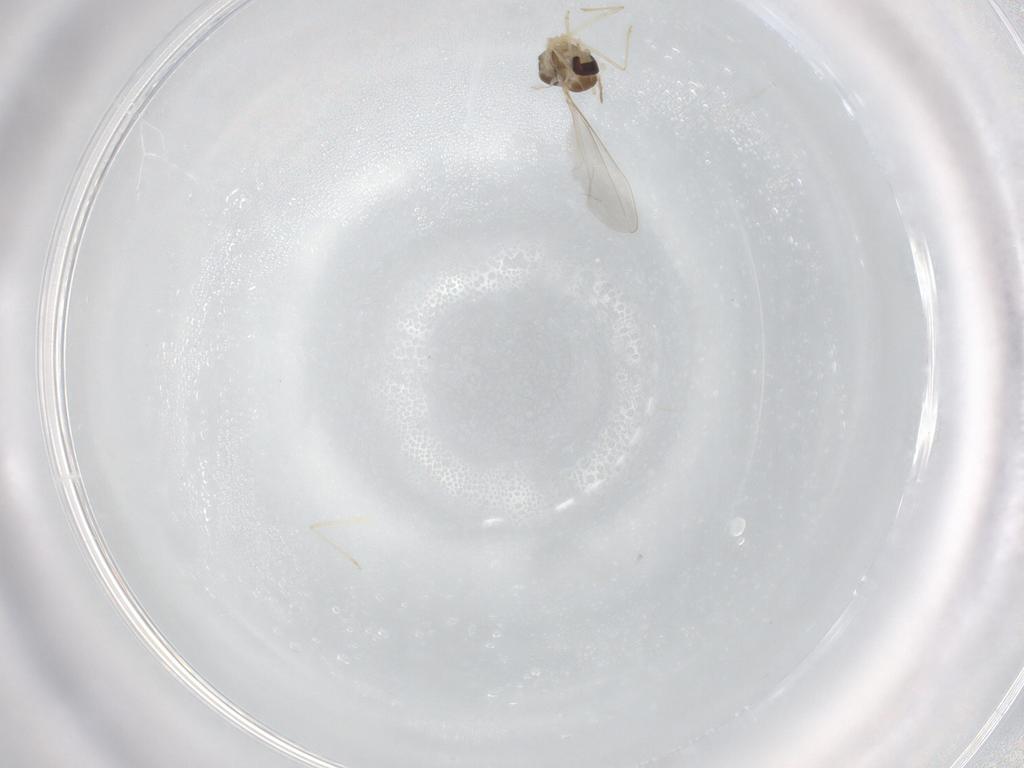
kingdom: Animalia
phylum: Arthropoda
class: Insecta
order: Diptera
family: Cecidomyiidae
